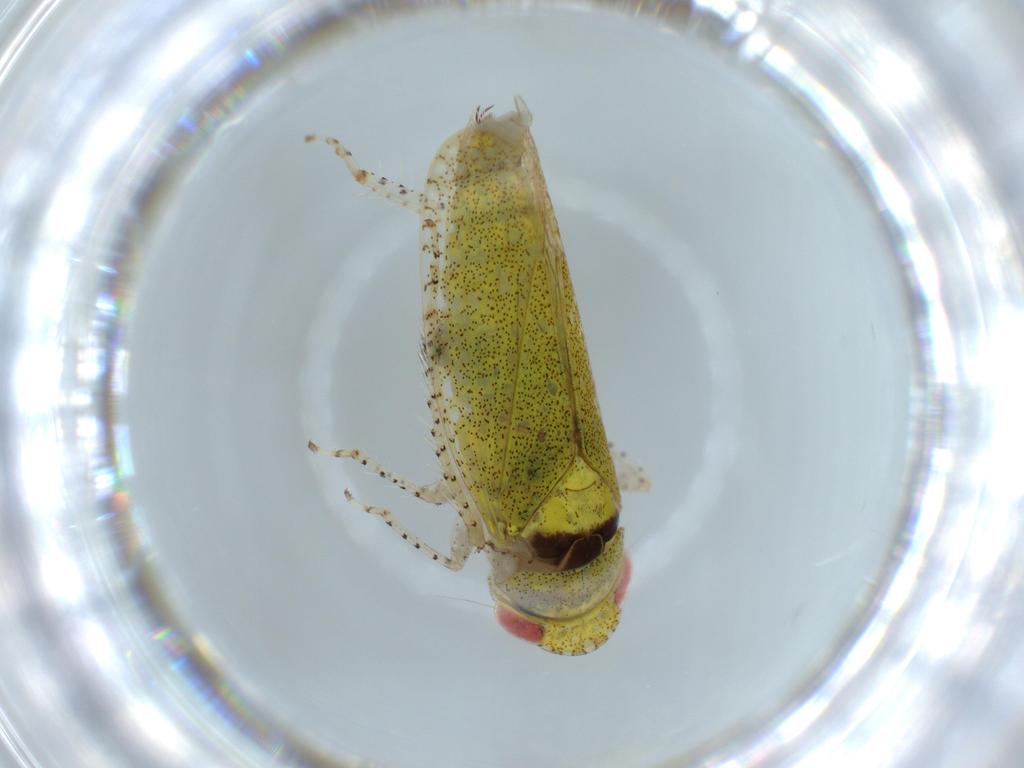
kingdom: Animalia
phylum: Arthropoda
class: Insecta
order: Hemiptera
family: Cicadellidae
